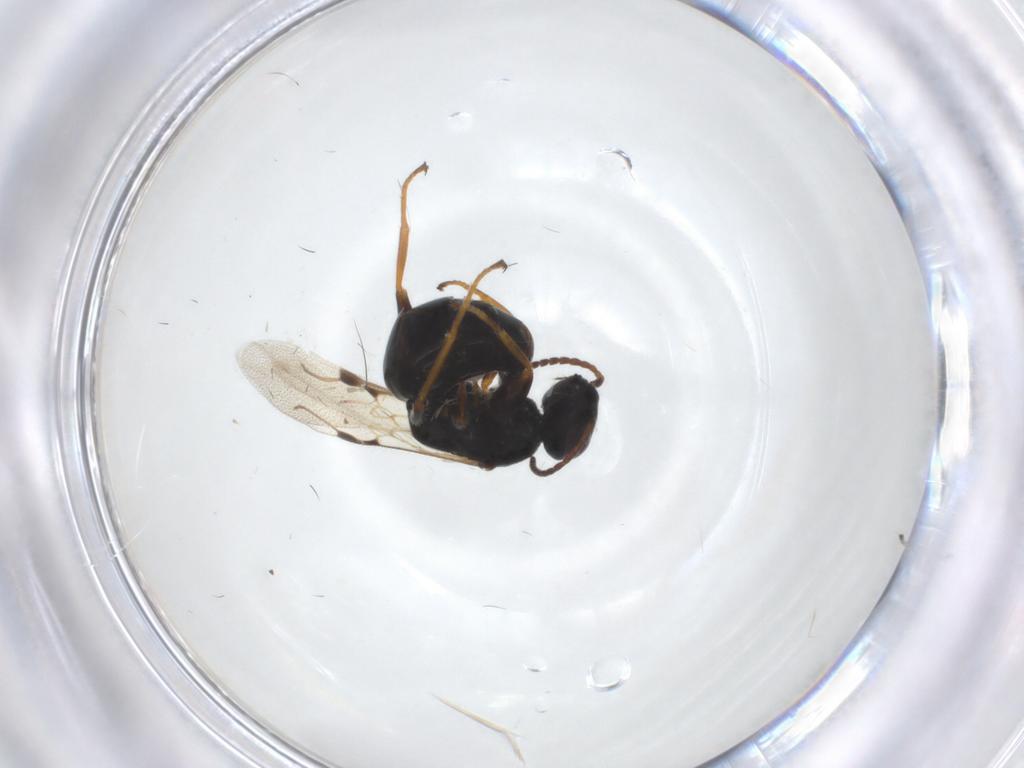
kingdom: Animalia
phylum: Arthropoda
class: Insecta
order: Hymenoptera
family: Bethylidae
